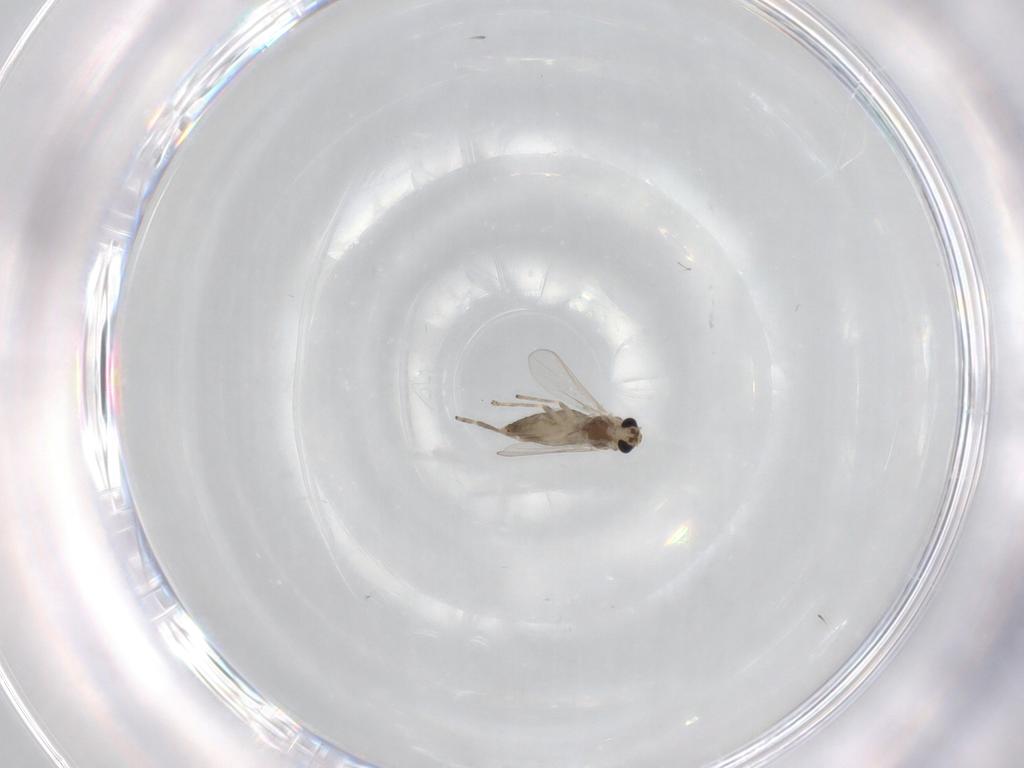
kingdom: Animalia
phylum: Arthropoda
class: Insecta
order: Diptera
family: Chironomidae
